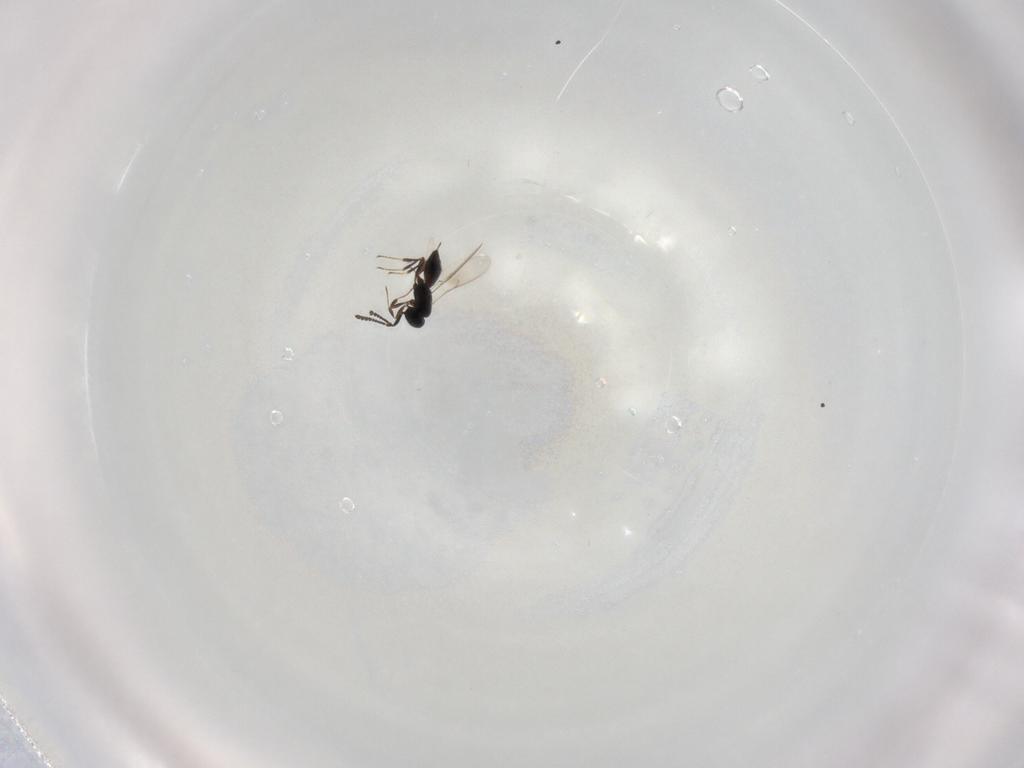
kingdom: Animalia
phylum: Arthropoda
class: Insecta
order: Hymenoptera
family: Scelionidae
